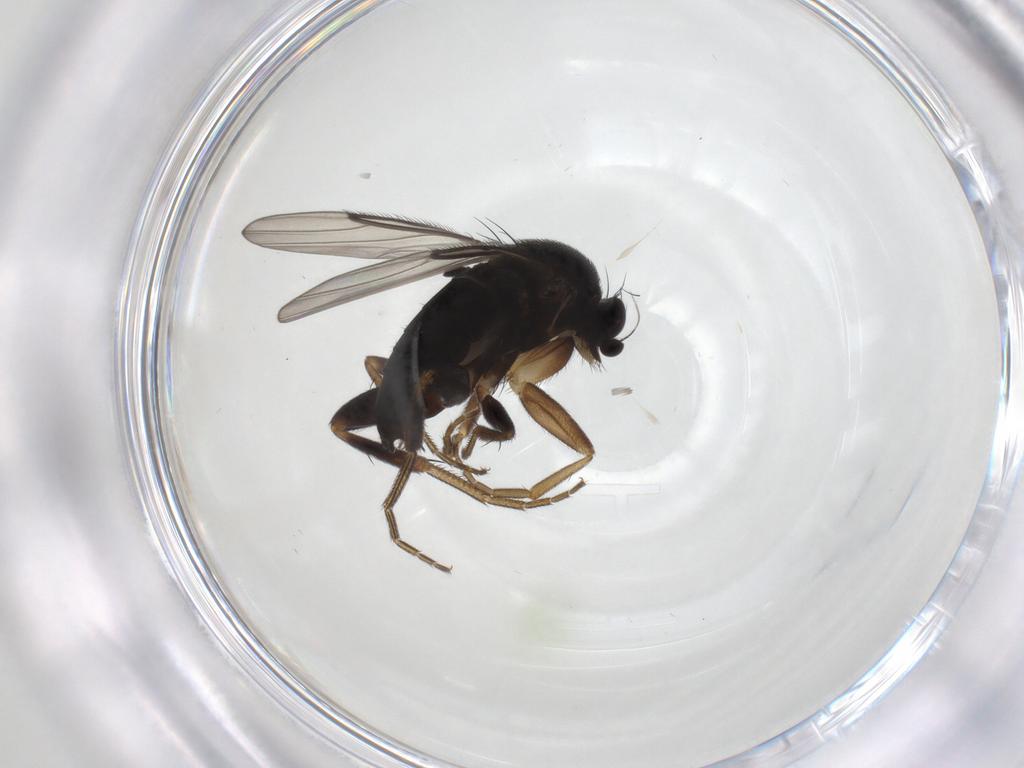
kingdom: Animalia
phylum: Arthropoda
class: Insecta
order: Diptera
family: Phoridae
